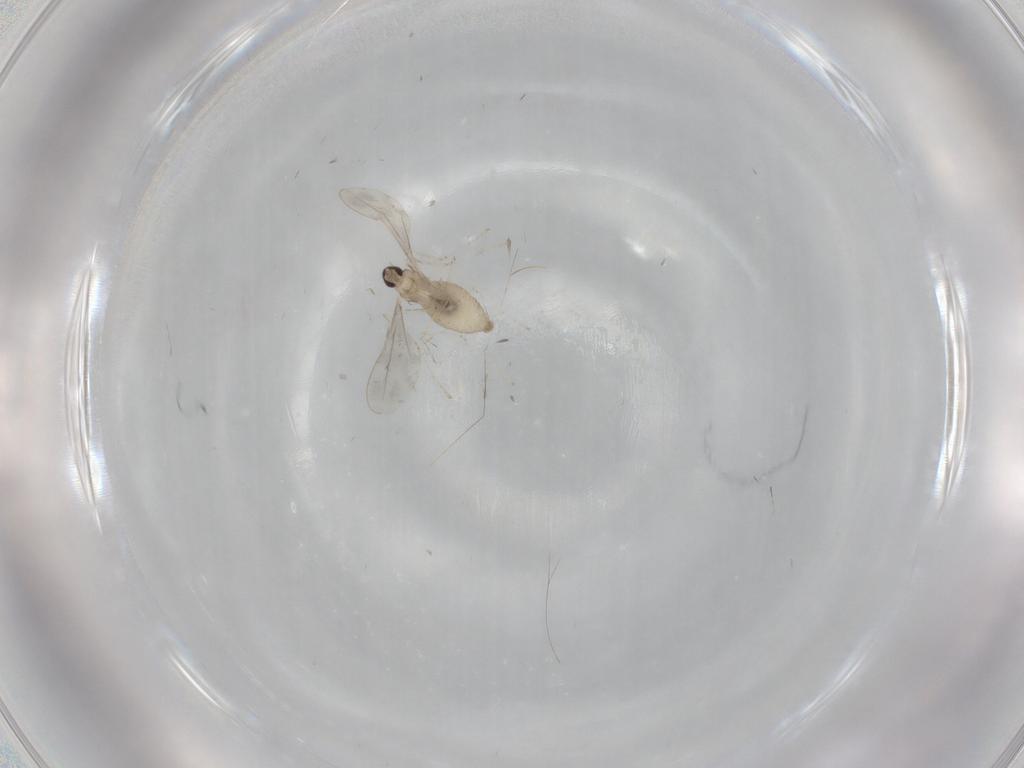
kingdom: Animalia
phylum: Arthropoda
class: Insecta
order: Diptera
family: Cecidomyiidae
